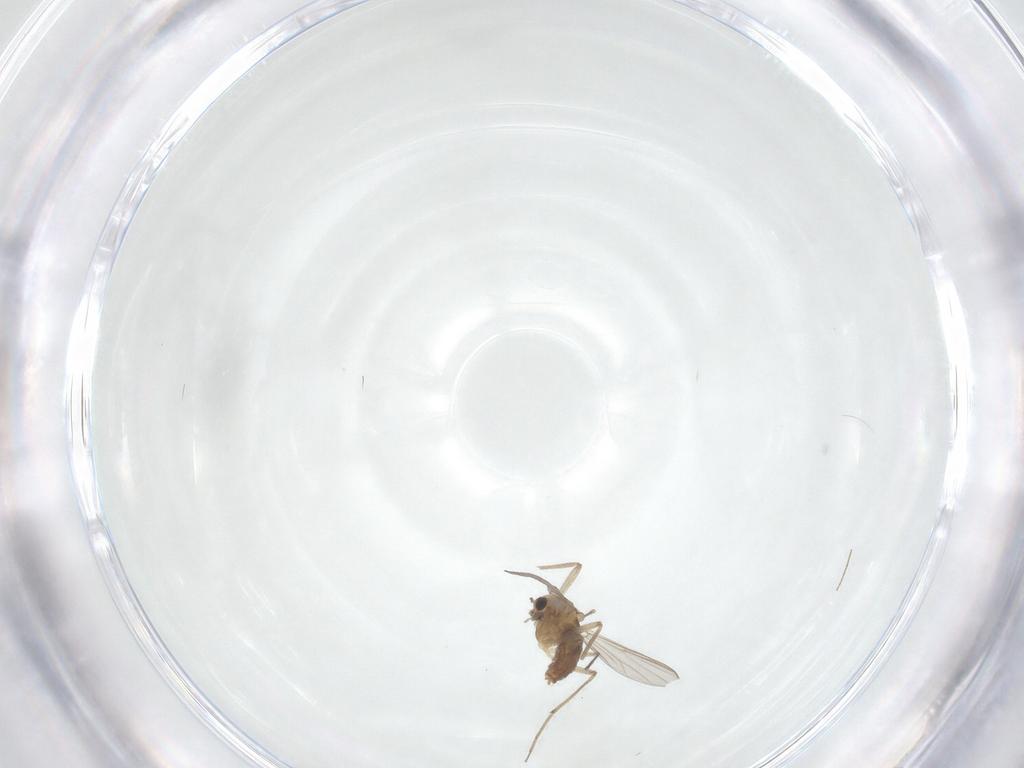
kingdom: Animalia
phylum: Arthropoda
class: Insecta
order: Diptera
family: Chironomidae
